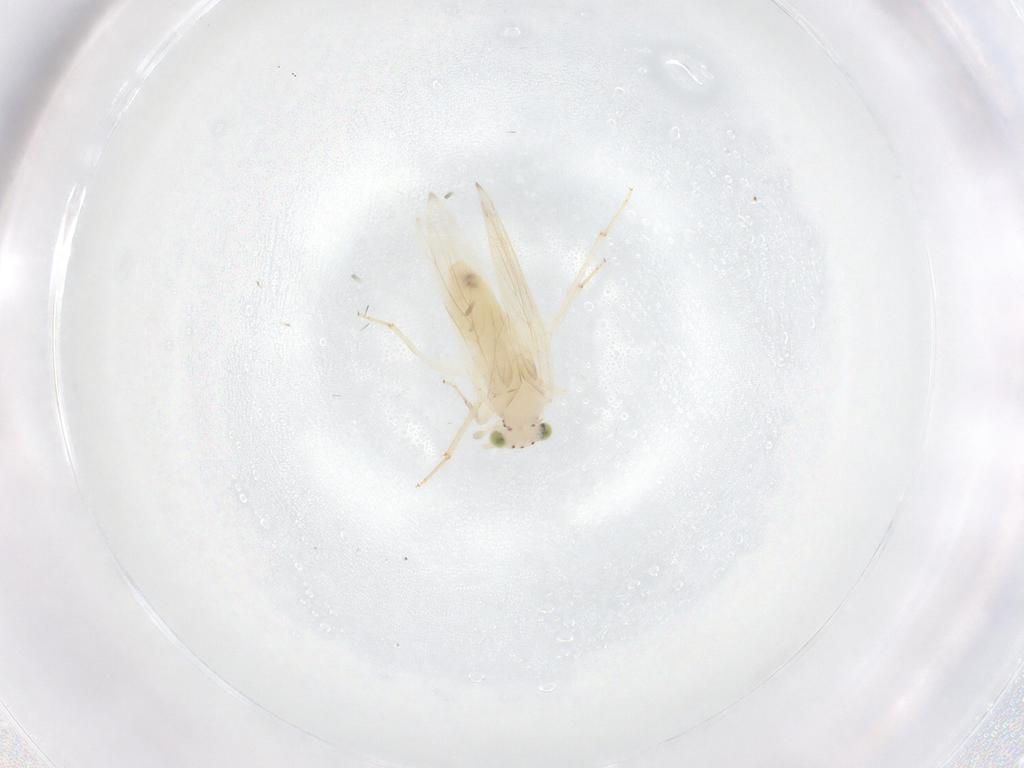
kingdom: Animalia
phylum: Arthropoda
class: Insecta
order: Psocodea
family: Lepidopsocidae
